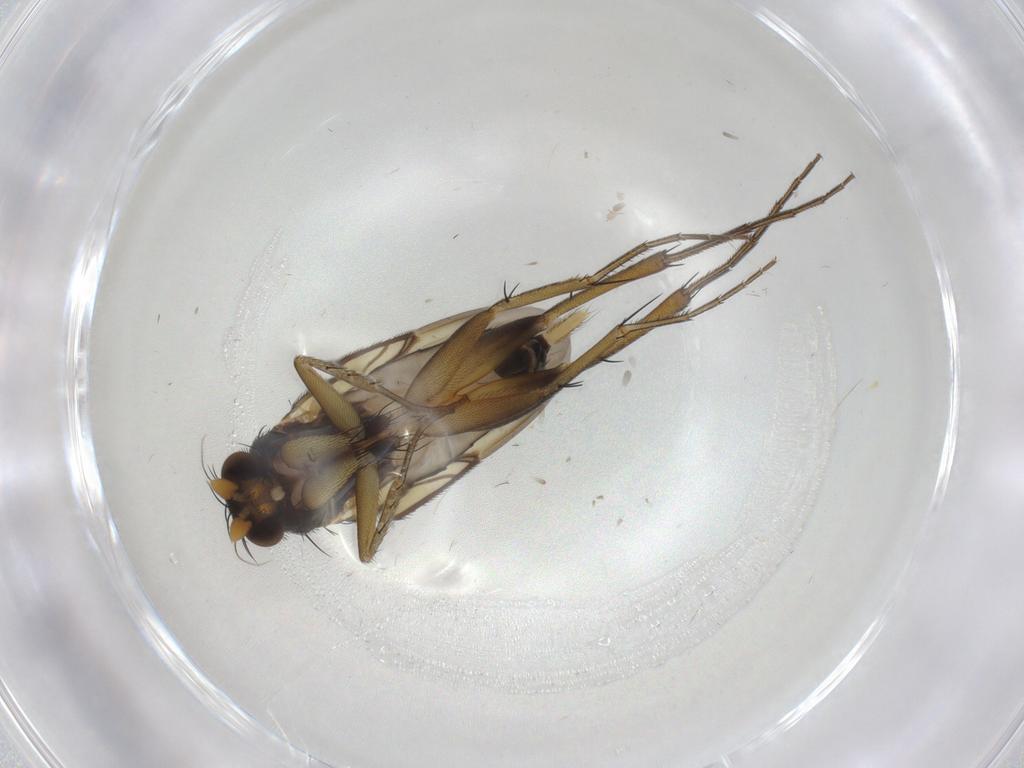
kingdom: Animalia
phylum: Arthropoda
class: Insecta
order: Diptera
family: Phoridae
